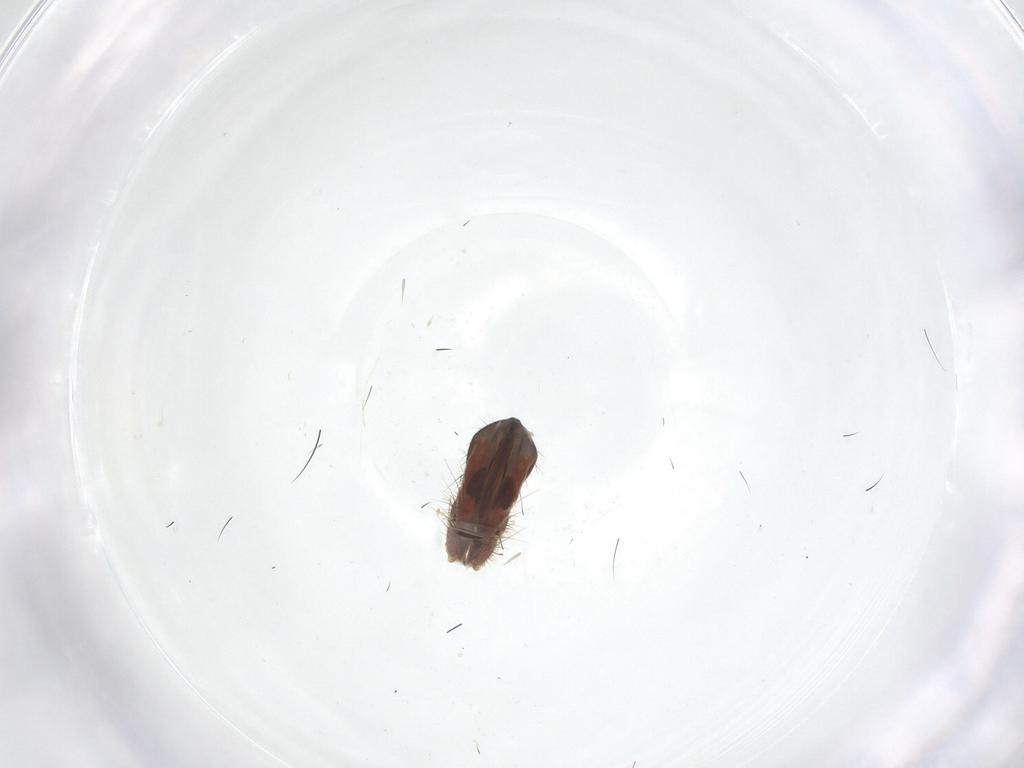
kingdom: Animalia
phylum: Arthropoda
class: Insecta
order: Diptera
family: Muscidae
